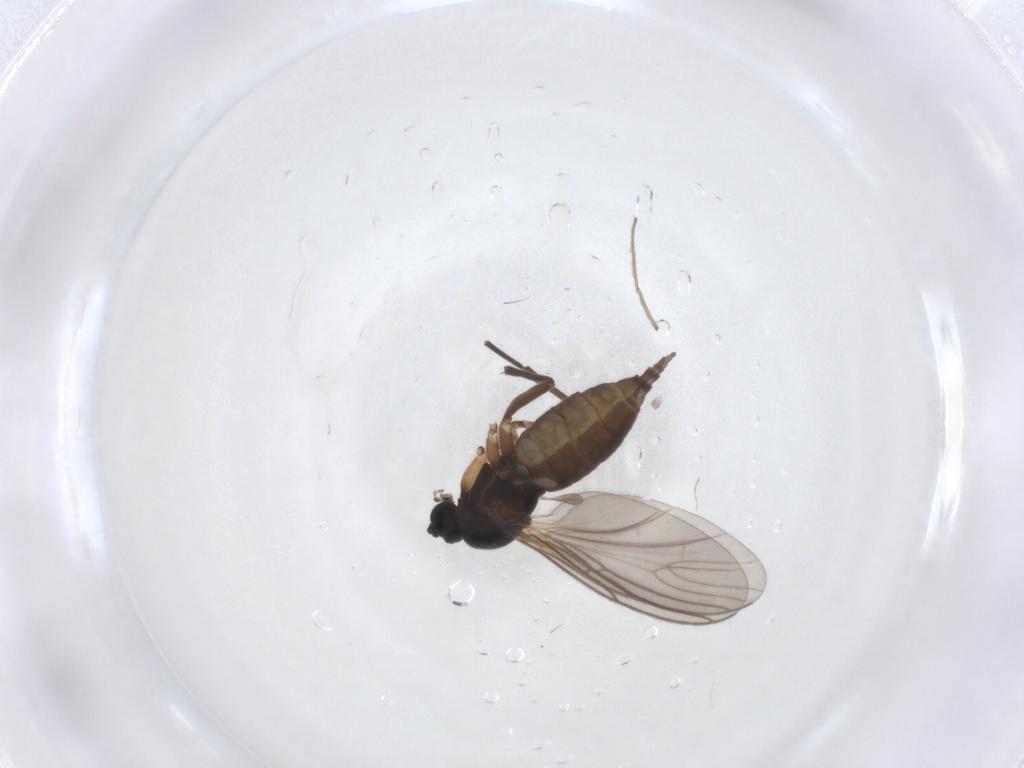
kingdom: Animalia
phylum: Arthropoda
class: Insecta
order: Diptera
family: Sciaridae
